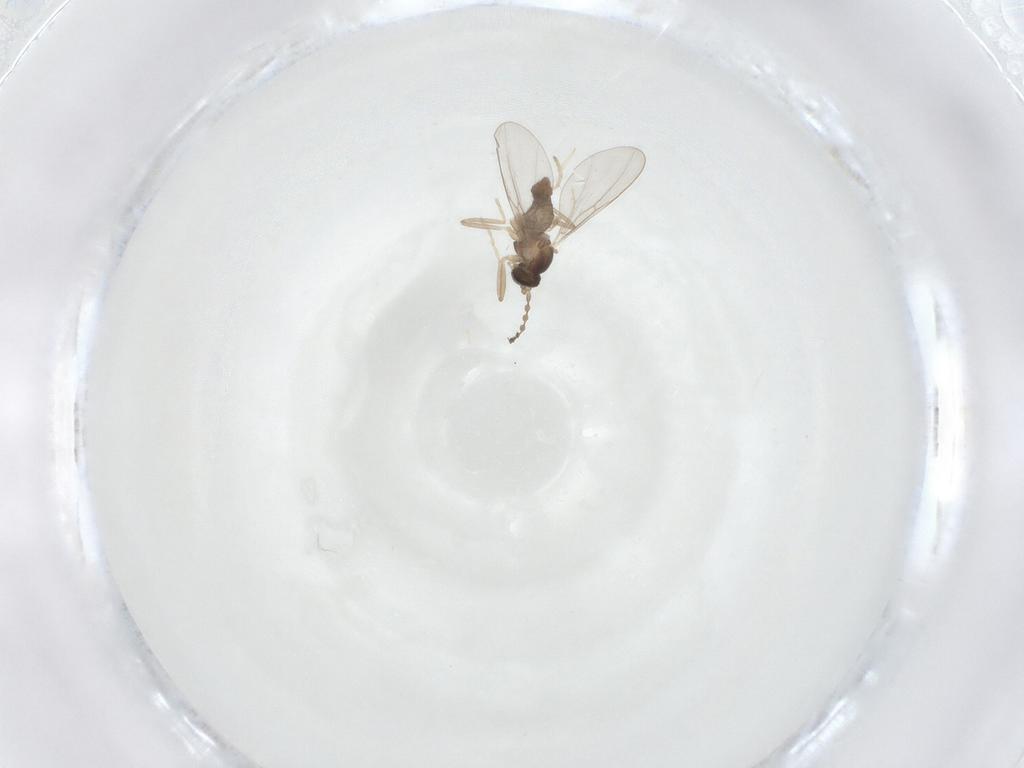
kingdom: Animalia
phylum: Arthropoda
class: Insecta
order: Diptera
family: Cecidomyiidae
